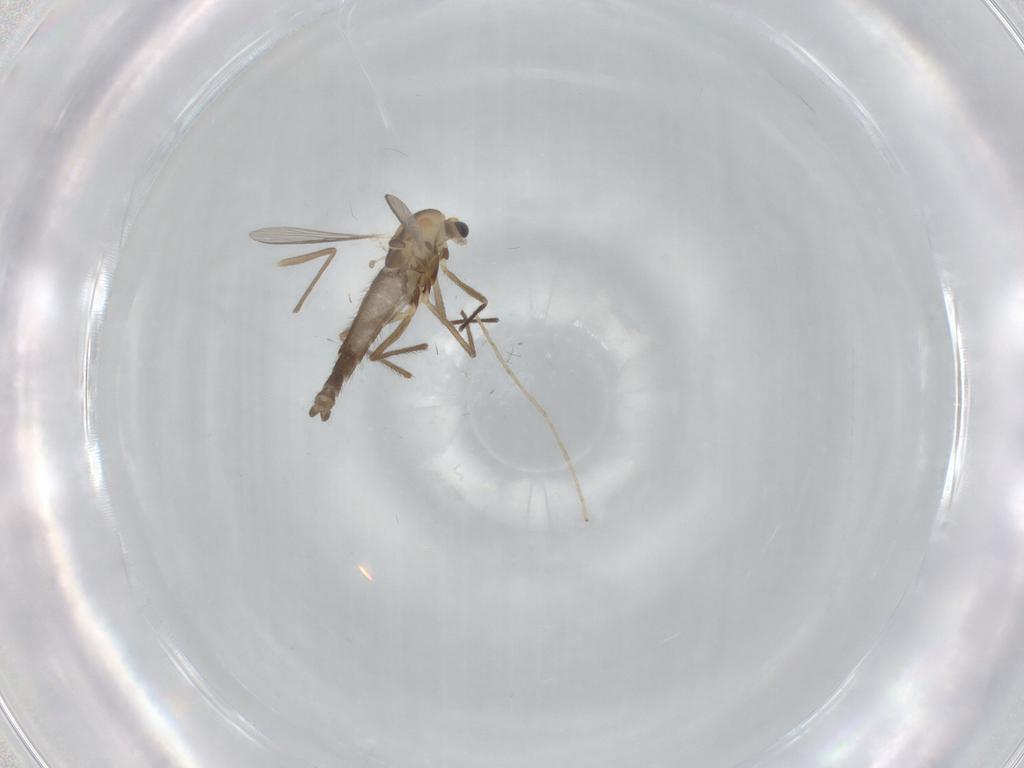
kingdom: Animalia
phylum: Arthropoda
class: Insecta
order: Diptera
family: Chironomidae
